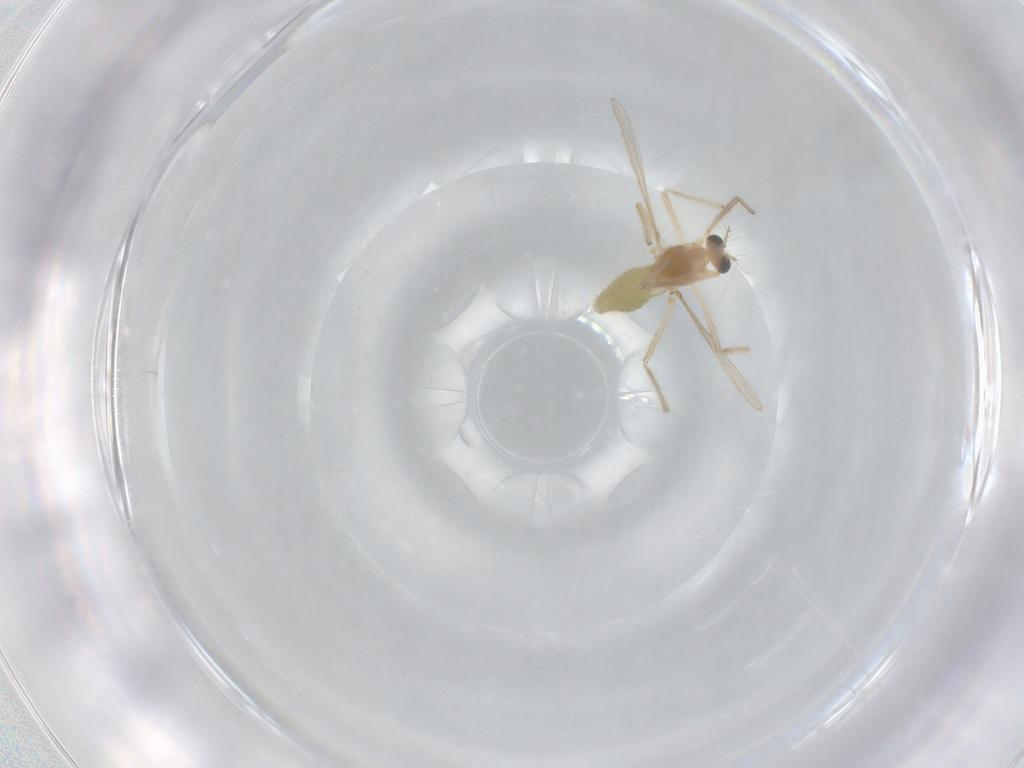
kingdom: Animalia
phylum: Arthropoda
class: Insecta
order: Diptera
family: Chironomidae
